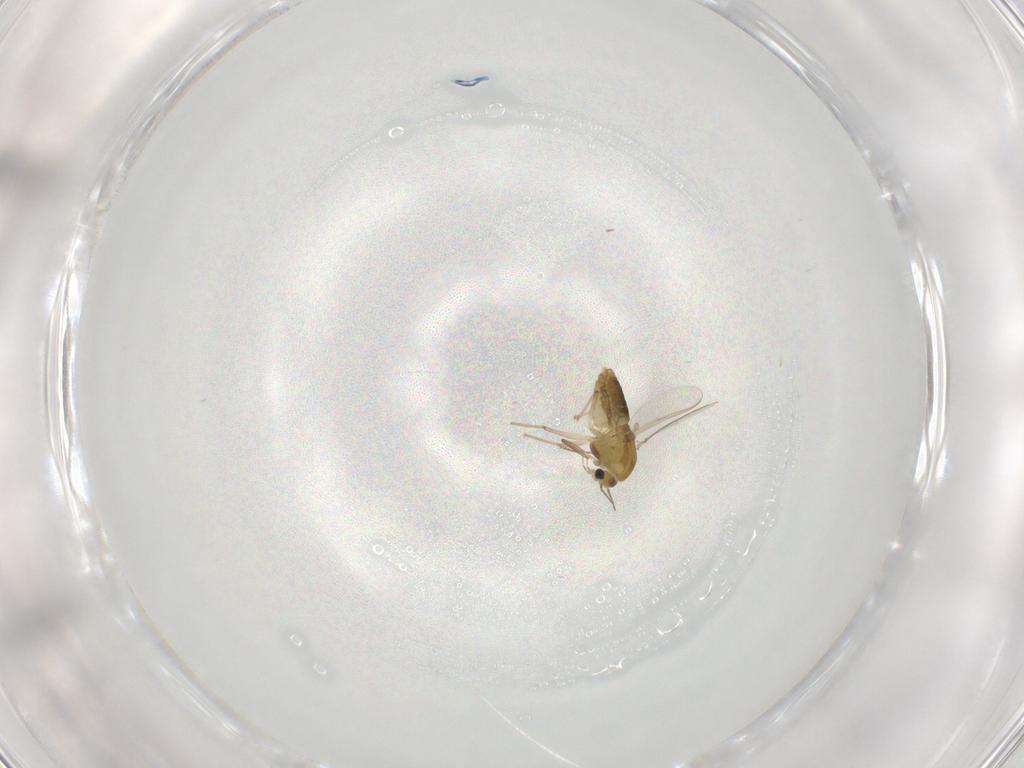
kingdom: Animalia
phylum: Arthropoda
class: Insecta
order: Diptera
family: Chironomidae
